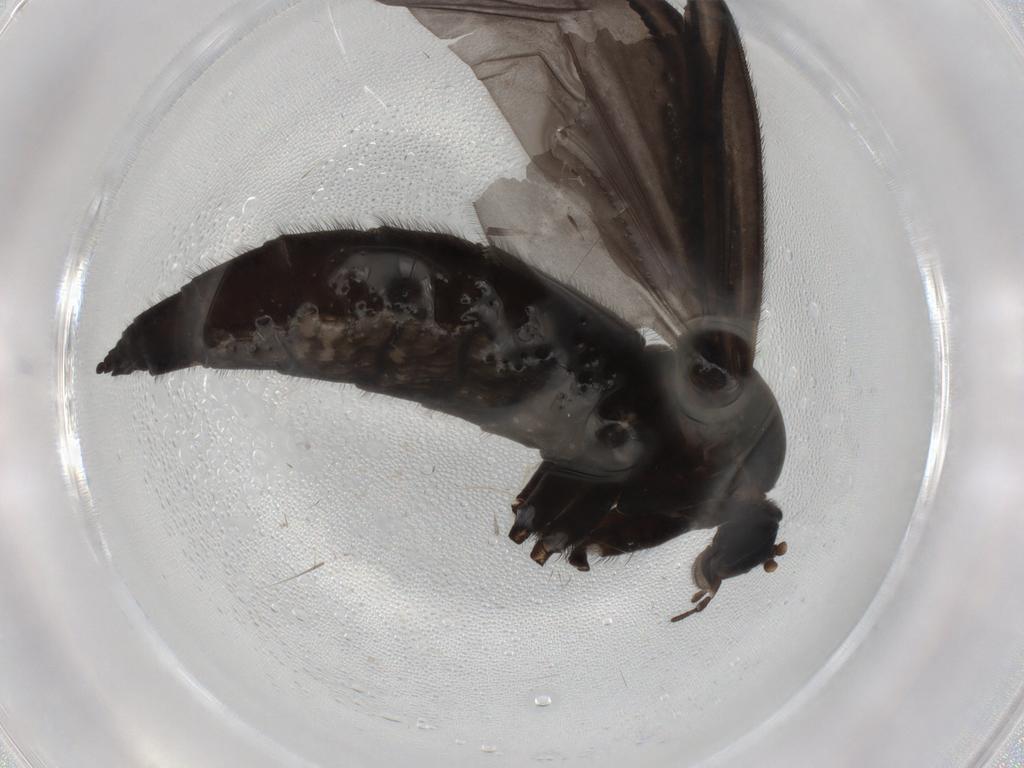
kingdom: Animalia
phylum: Arthropoda
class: Insecta
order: Diptera
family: Sciaridae
